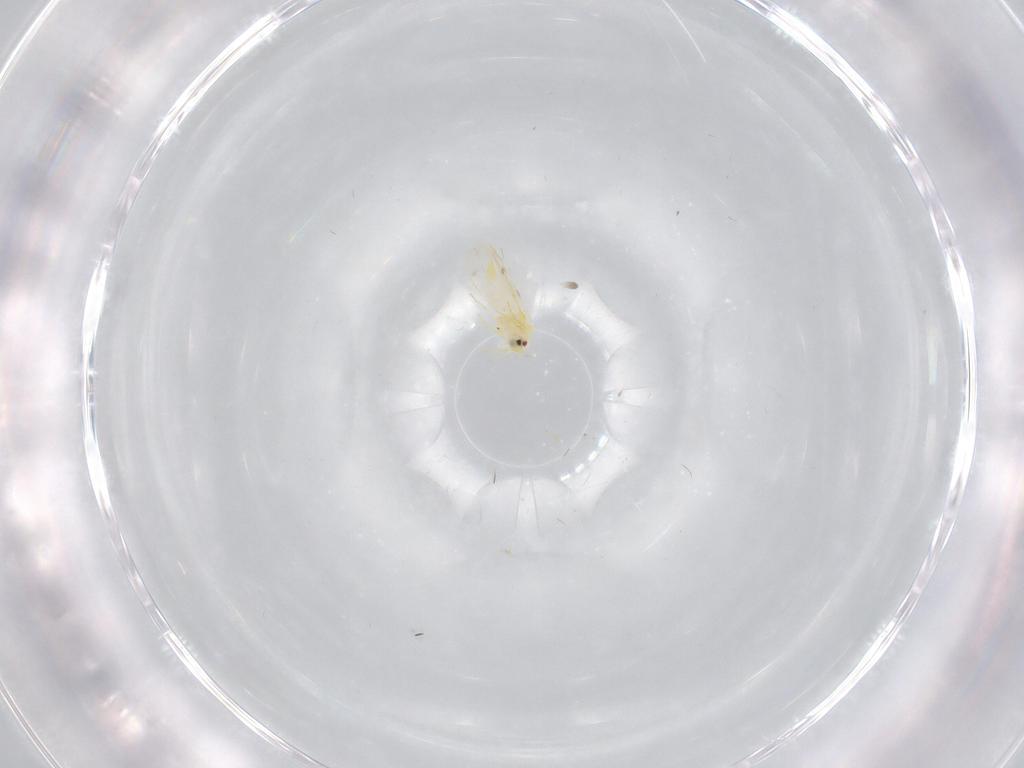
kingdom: Animalia
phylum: Arthropoda
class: Insecta
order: Hemiptera
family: Aleyrodidae
